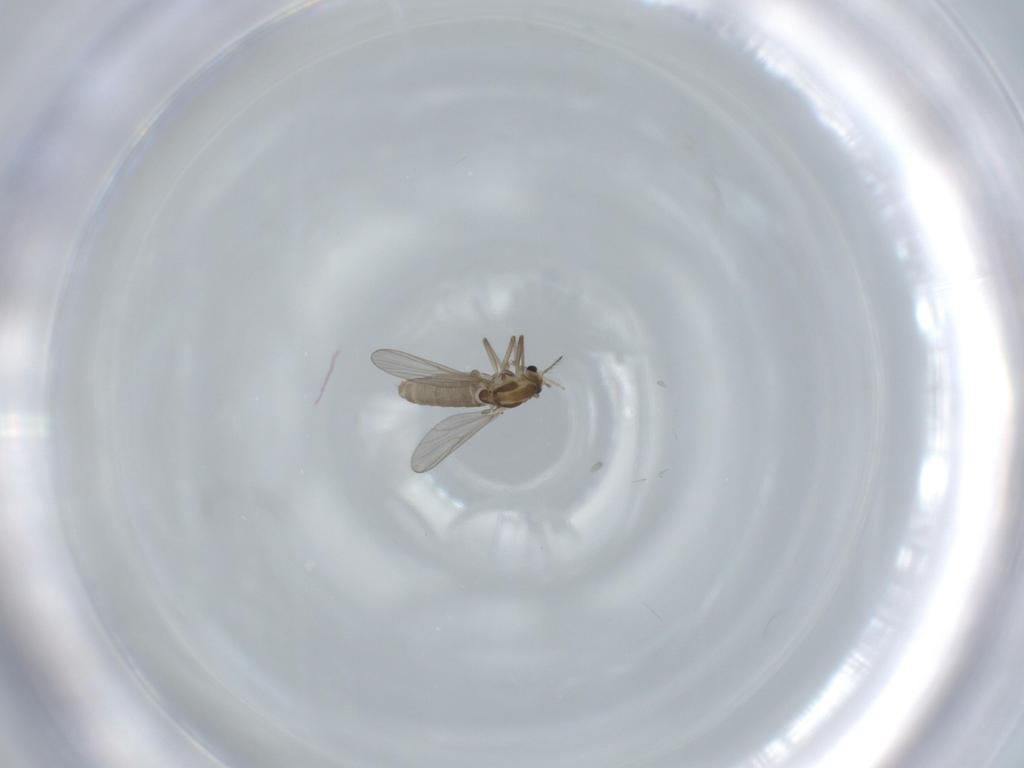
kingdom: Animalia
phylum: Arthropoda
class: Insecta
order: Diptera
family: Chironomidae
